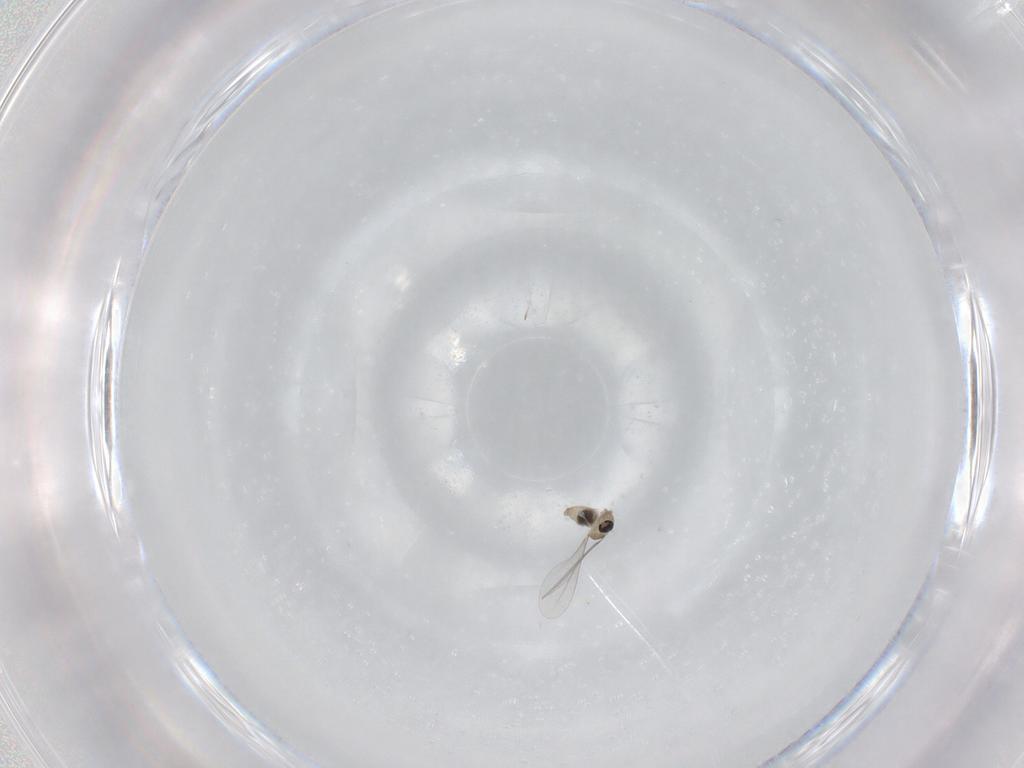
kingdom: Animalia
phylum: Arthropoda
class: Insecta
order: Diptera
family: Cecidomyiidae
